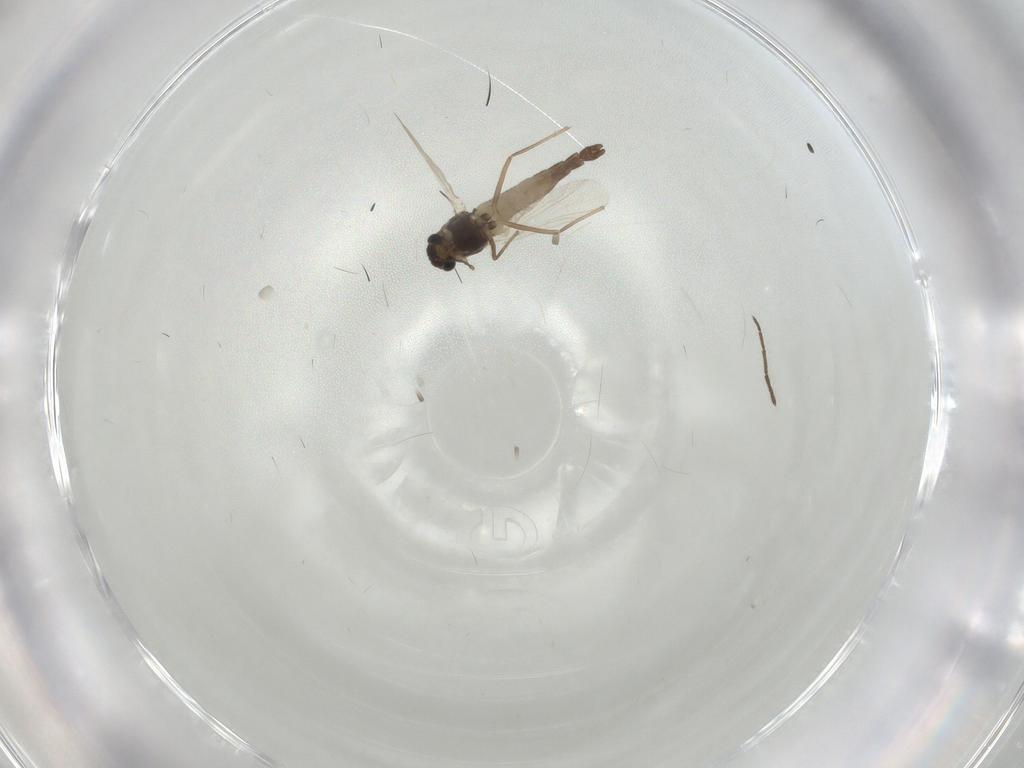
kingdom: Animalia
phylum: Arthropoda
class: Insecta
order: Diptera
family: Chironomidae
